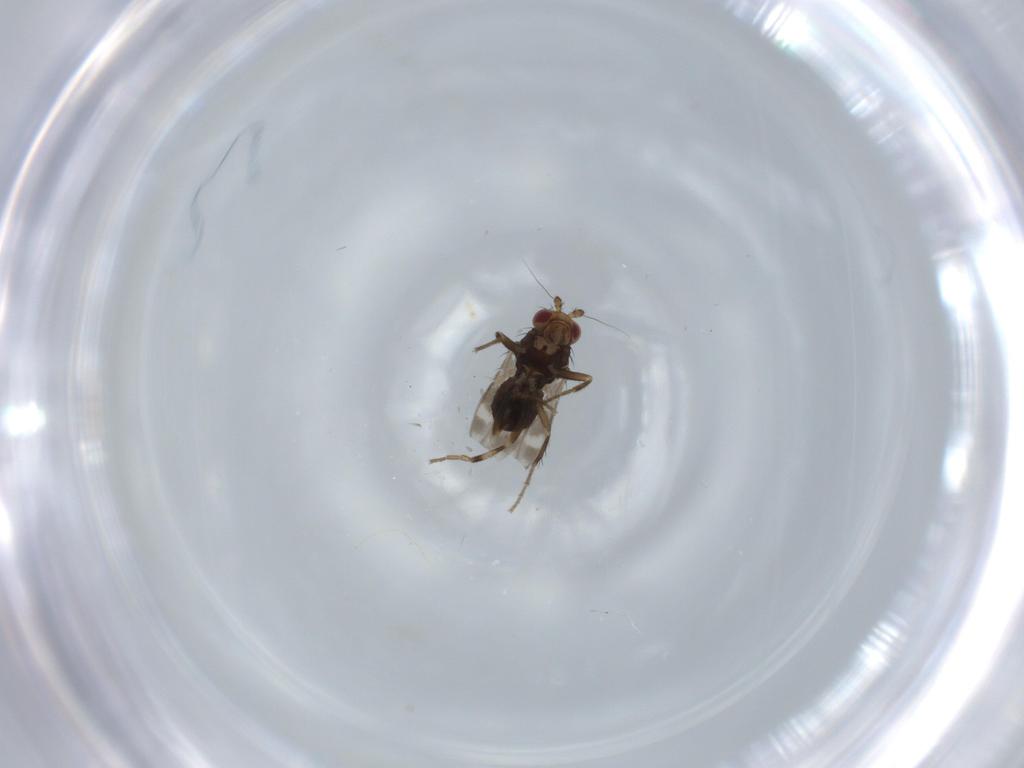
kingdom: Animalia
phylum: Arthropoda
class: Insecta
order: Diptera
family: Sphaeroceridae
